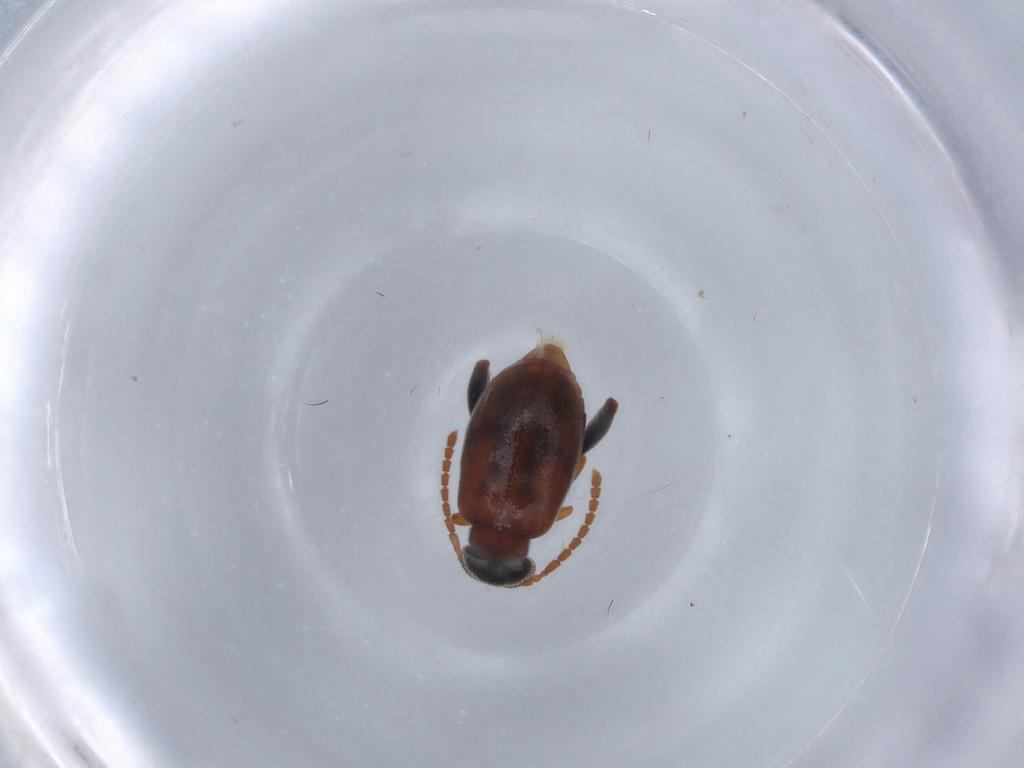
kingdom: Animalia
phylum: Arthropoda
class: Insecta
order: Coleoptera
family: Aderidae
